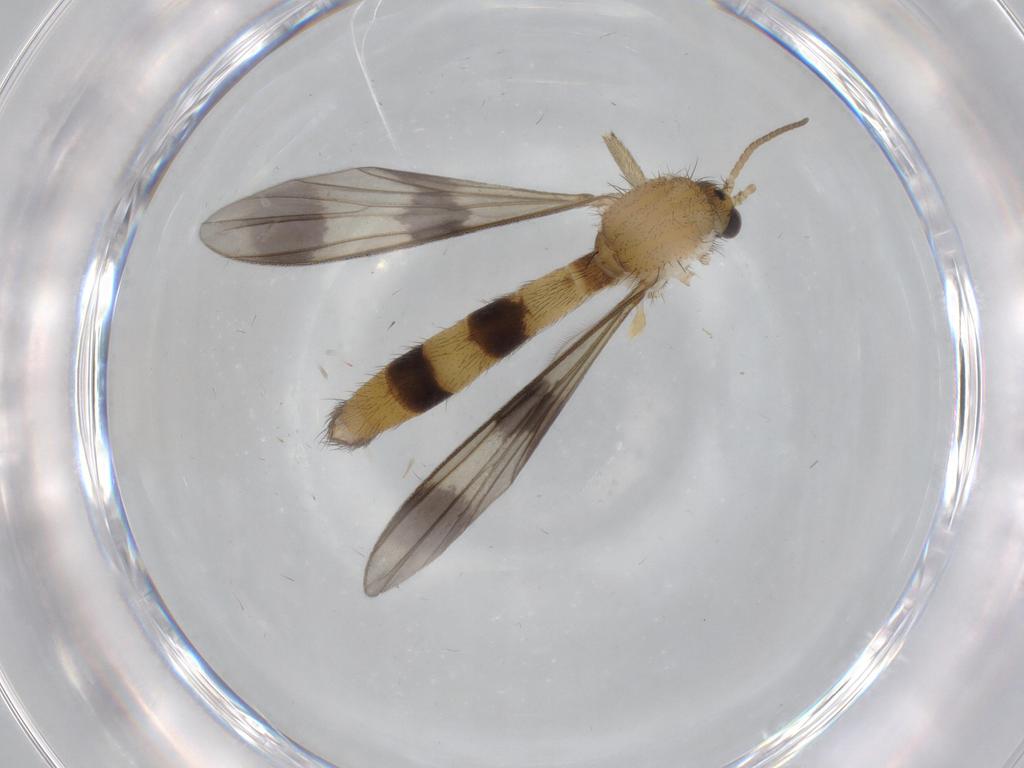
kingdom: Animalia
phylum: Arthropoda
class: Insecta
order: Diptera
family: Mycetophilidae
